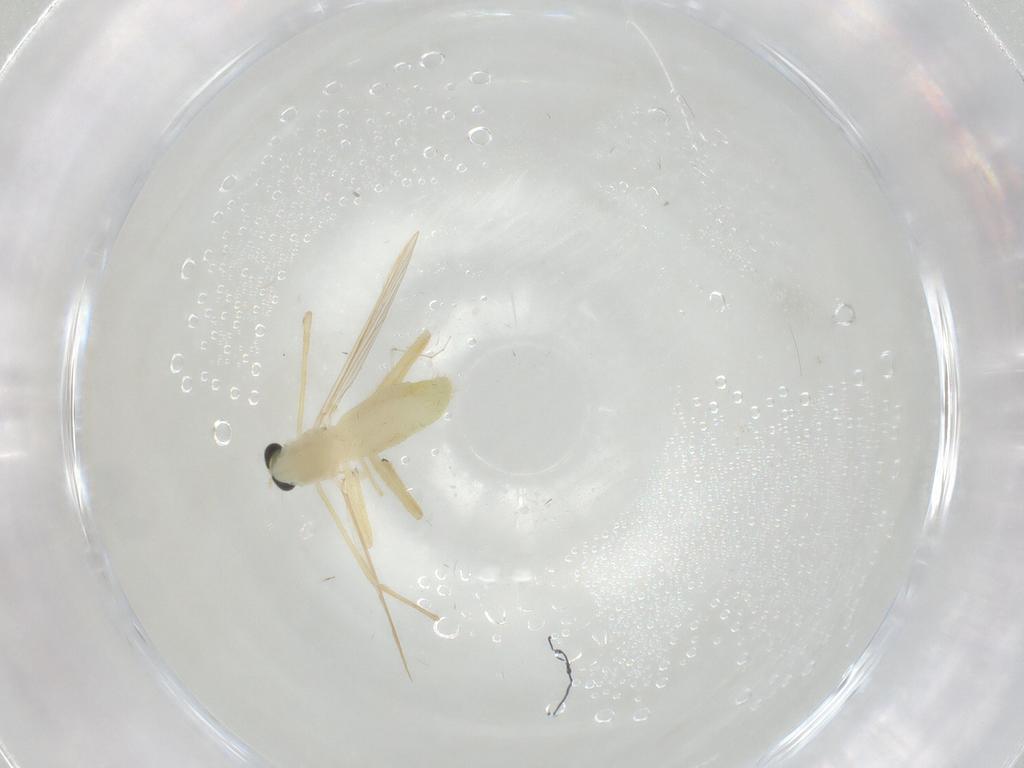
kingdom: Animalia
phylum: Arthropoda
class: Insecta
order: Diptera
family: Chironomidae
